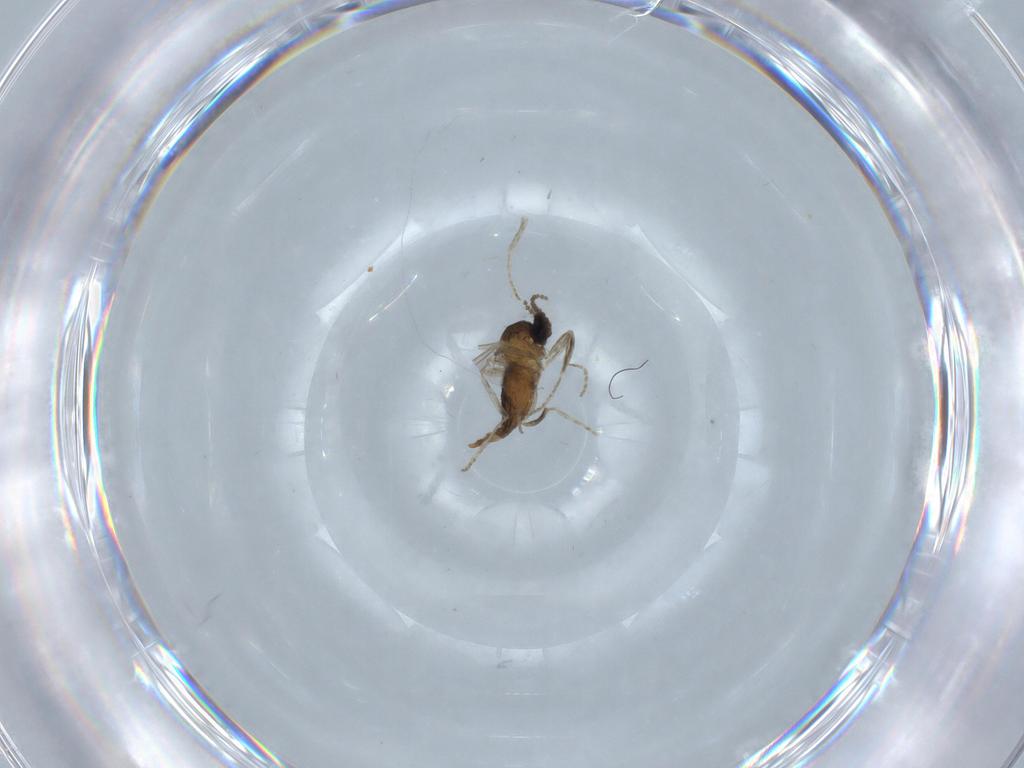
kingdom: Animalia
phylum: Arthropoda
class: Insecta
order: Diptera
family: Cecidomyiidae
